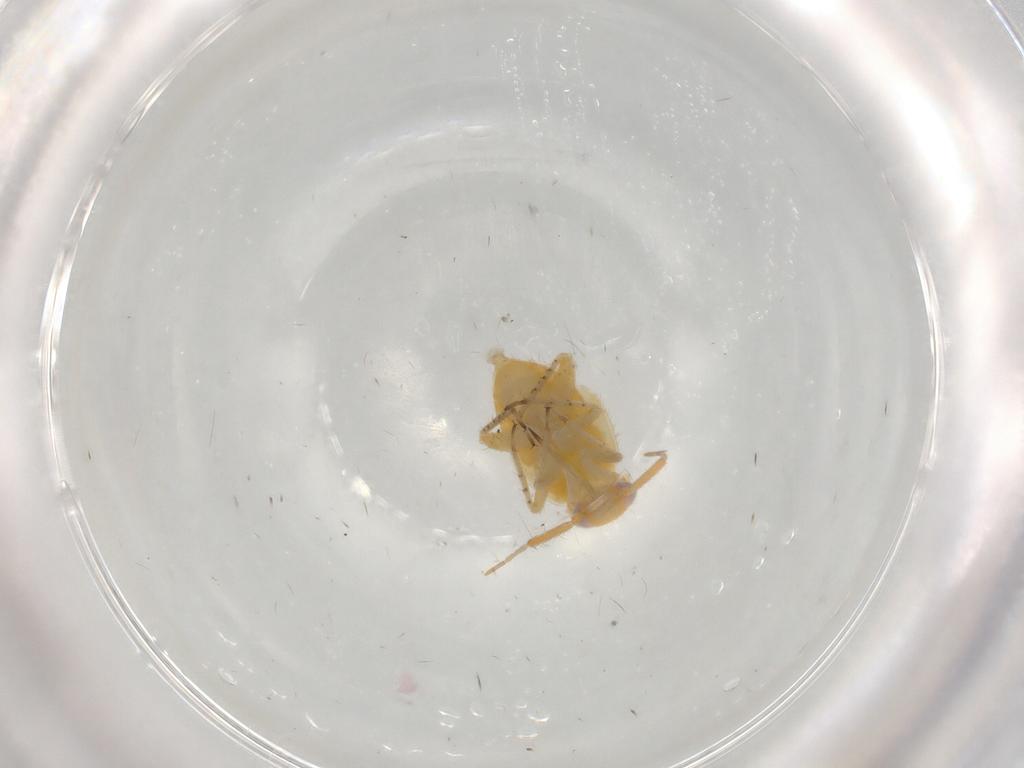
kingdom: Animalia
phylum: Arthropoda
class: Insecta
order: Hemiptera
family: Miridae
